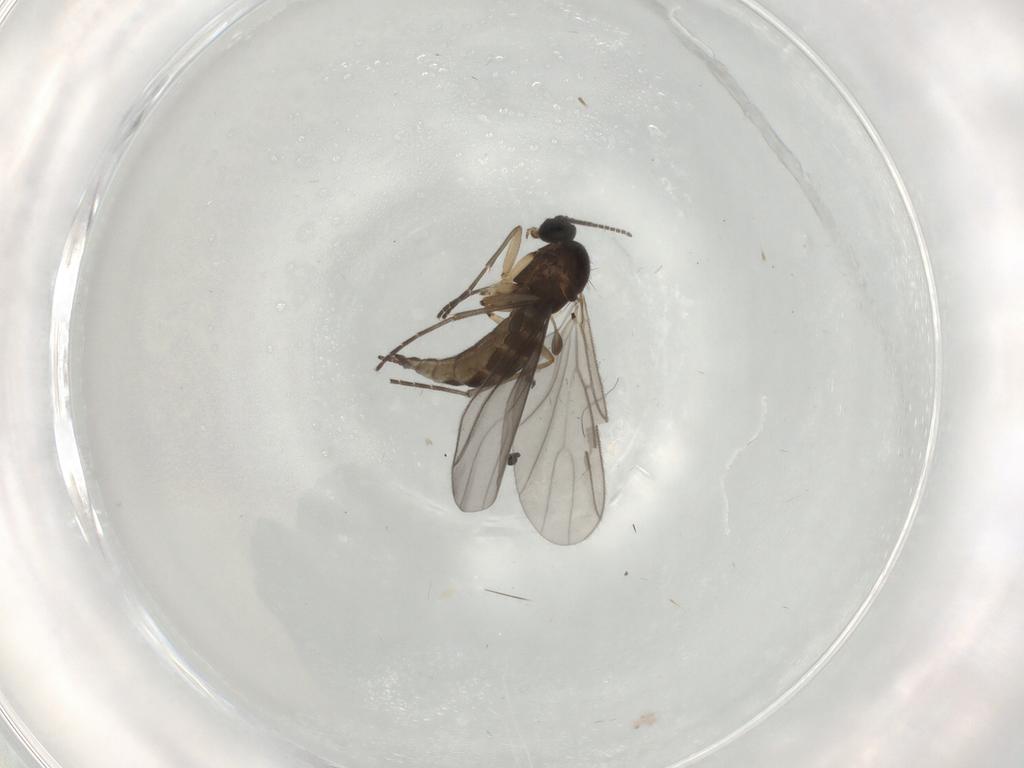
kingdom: Animalia
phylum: Arthropoda
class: Insecta
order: Diptera
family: Sciaridae
